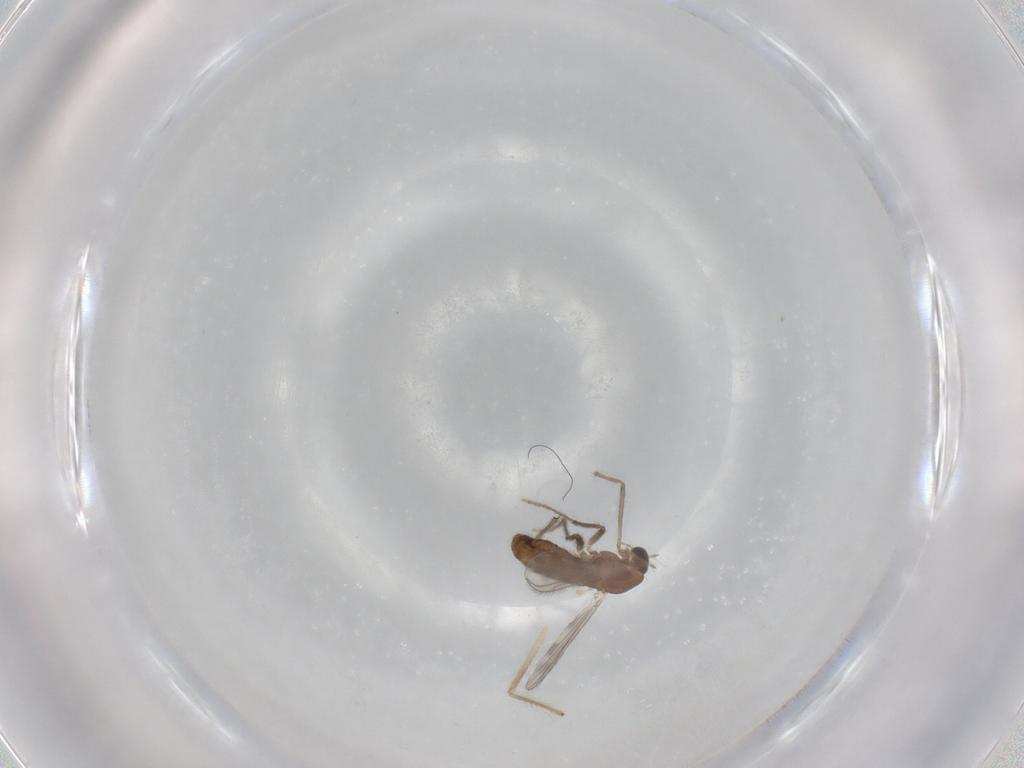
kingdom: Animalia
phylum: Arthropoda
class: Insecta
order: Diptera
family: Chironomidae
